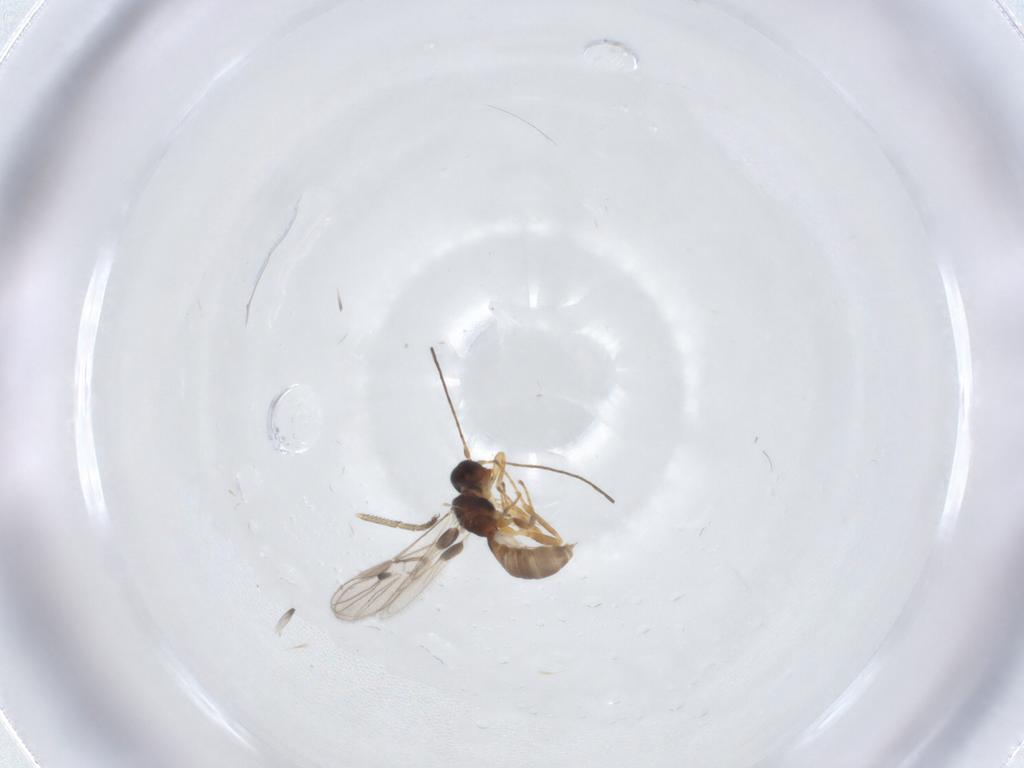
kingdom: Animalia
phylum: Arthropoda
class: Insecta
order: Hymenoptera
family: Braconidae
